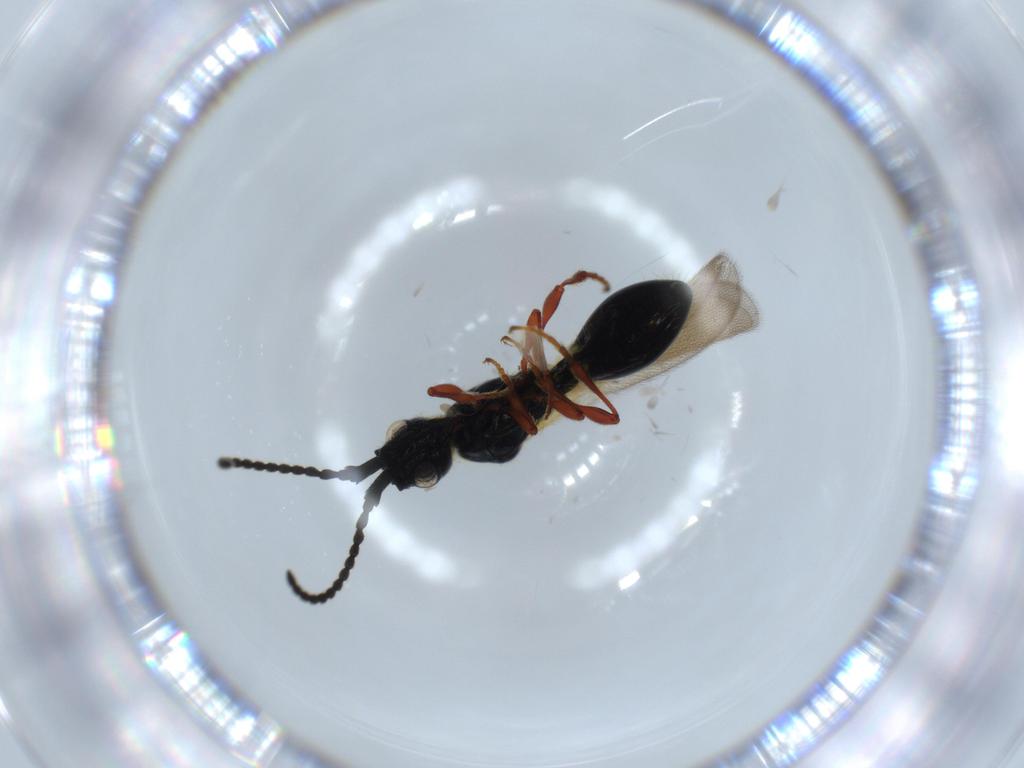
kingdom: Animalia
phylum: Arthropoda
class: Insecta
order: Hymenoptera
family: Diapriidae
